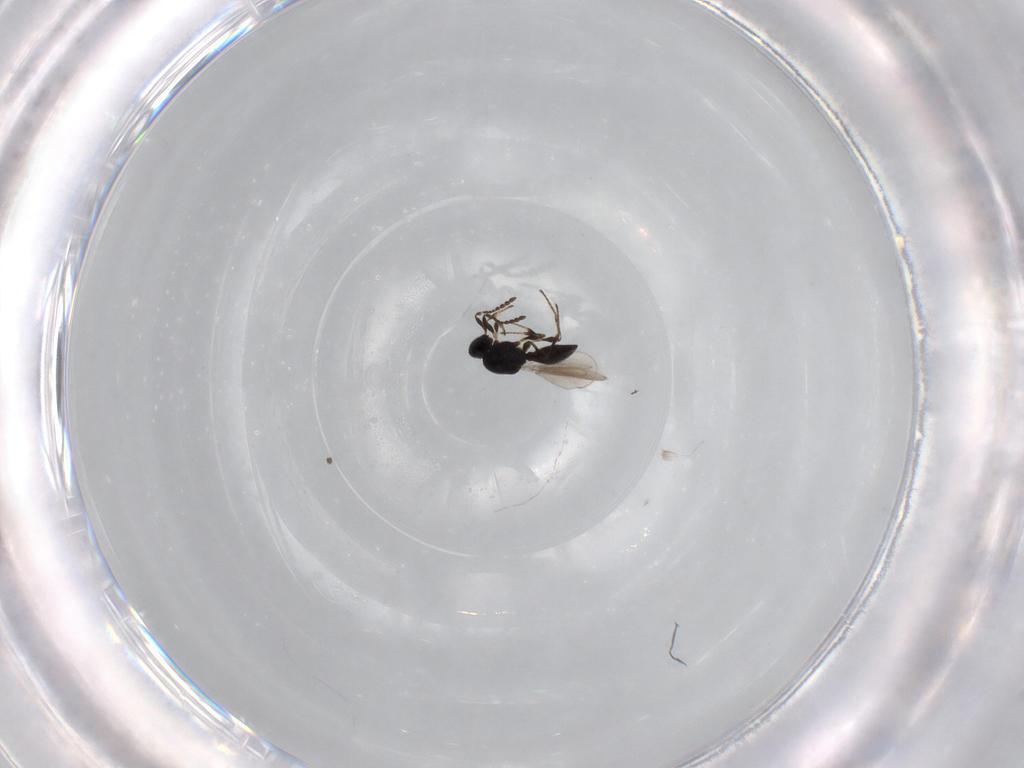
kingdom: Animalia
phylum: Arthropoda
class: Insecta
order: Hymenoptera
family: Platygastridae
